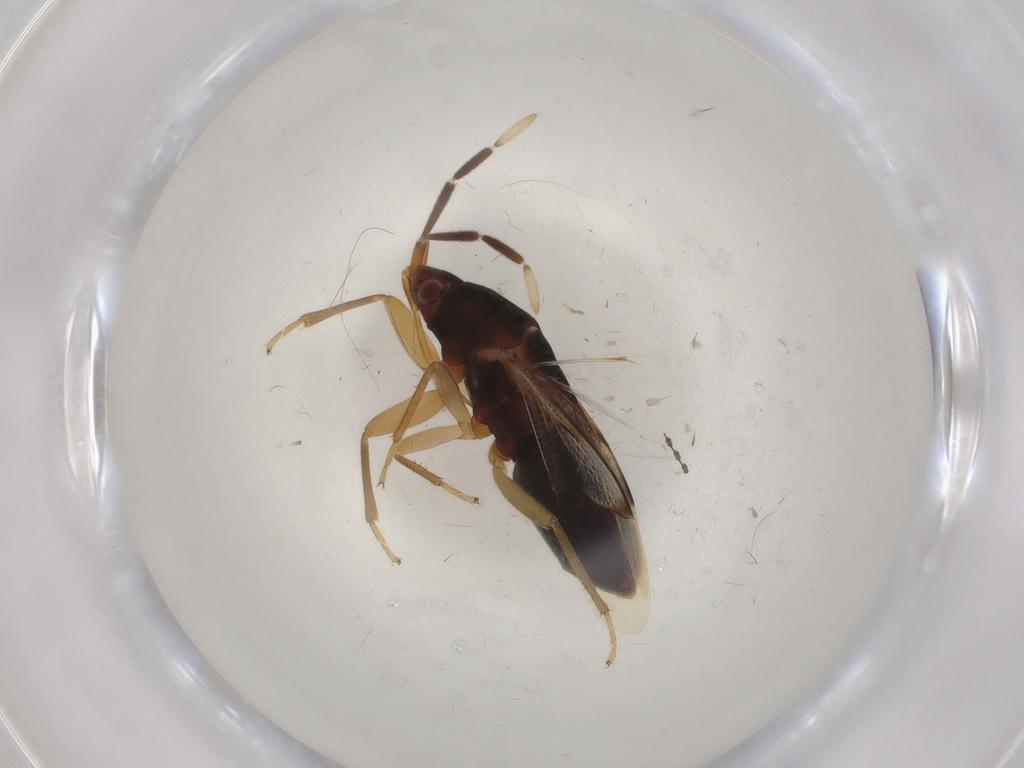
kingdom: Animalia
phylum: Arthropoda
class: Insecta
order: Hemiptera
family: Rhyparochromidae
